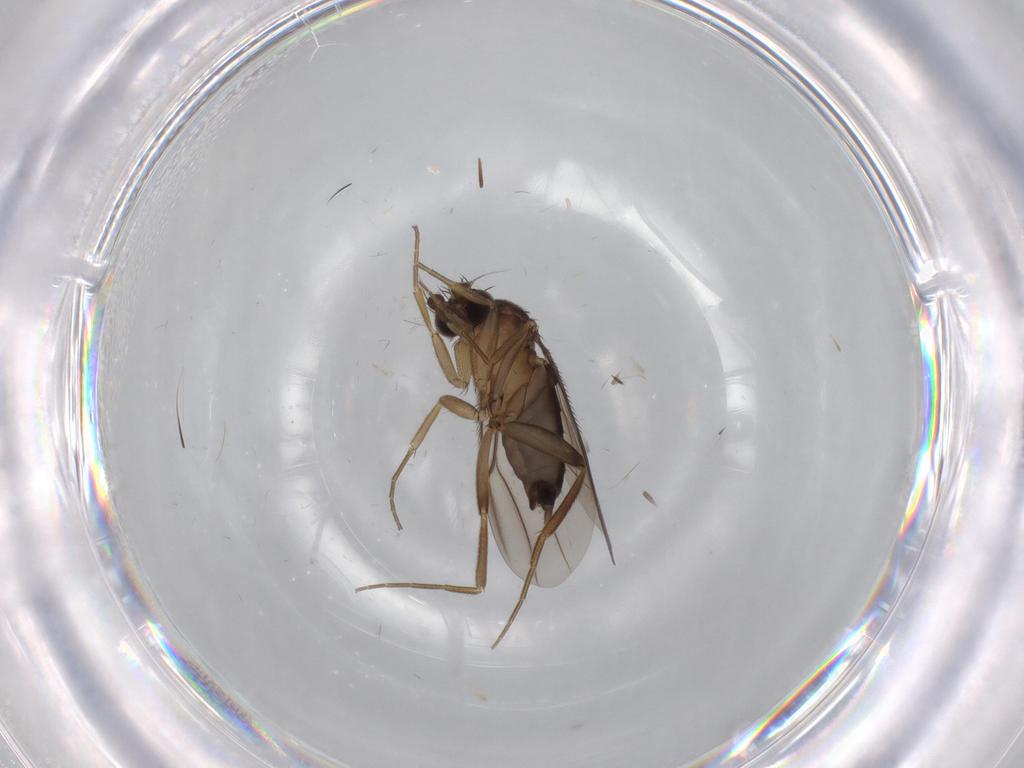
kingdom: Animalia
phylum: Arthropoda
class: Insecta
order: Diptera
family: Phoridae
